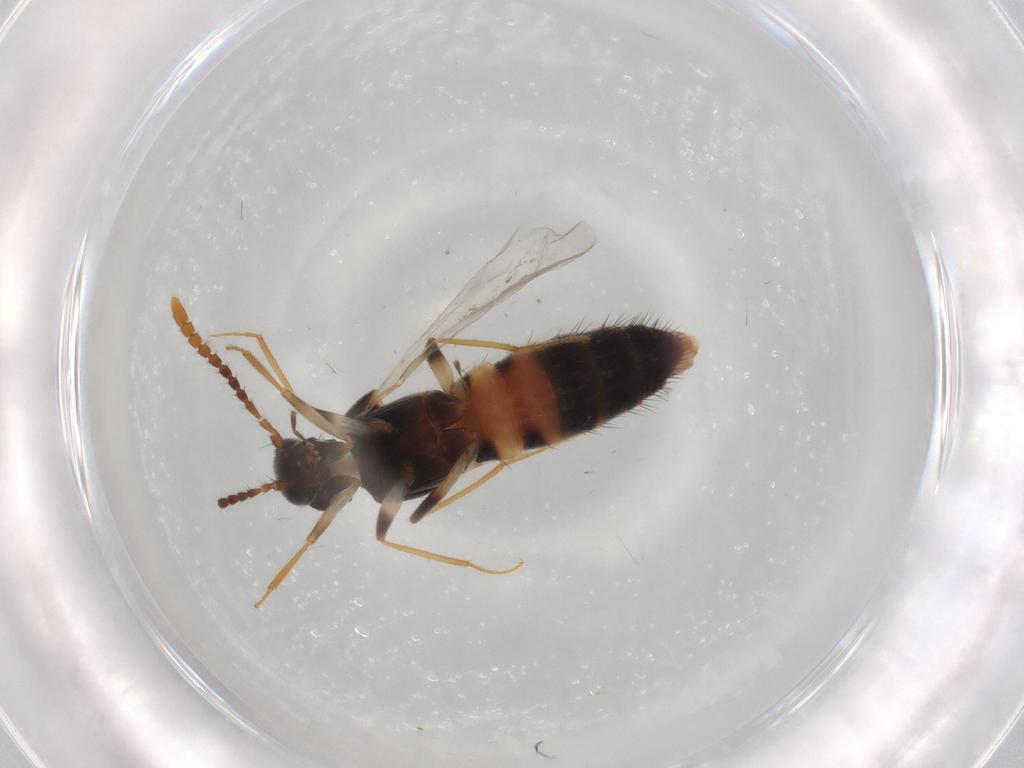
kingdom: Animalia
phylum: Arthropoda
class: Insecta
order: Coleoptera
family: Staphylinidae
